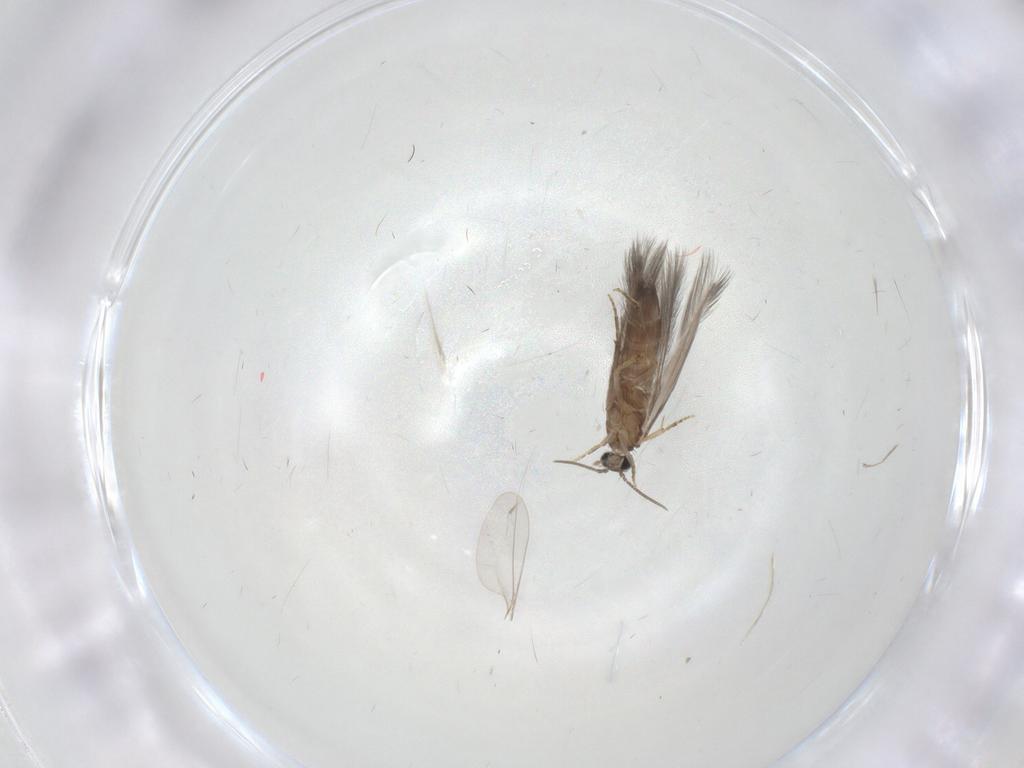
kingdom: Animalia
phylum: Arthropoda
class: Insecta
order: Trichoptera
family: Hydroptilidae
